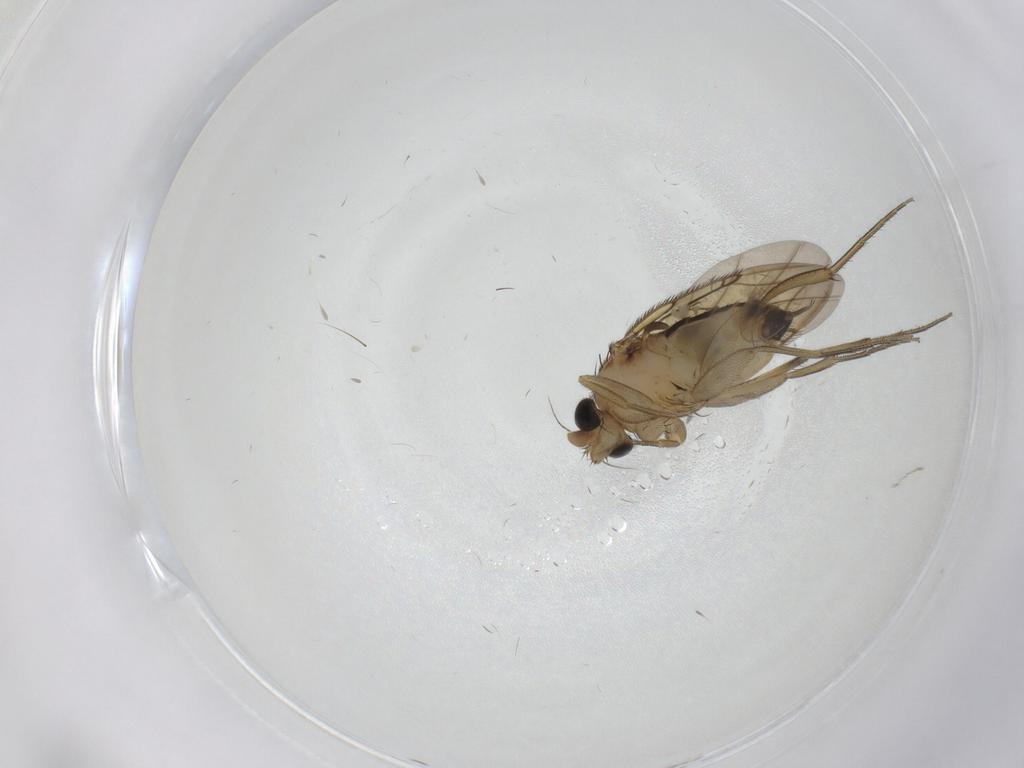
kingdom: Animalia
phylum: Arthropoda
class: Insecta
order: Diptera
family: Phoridae
